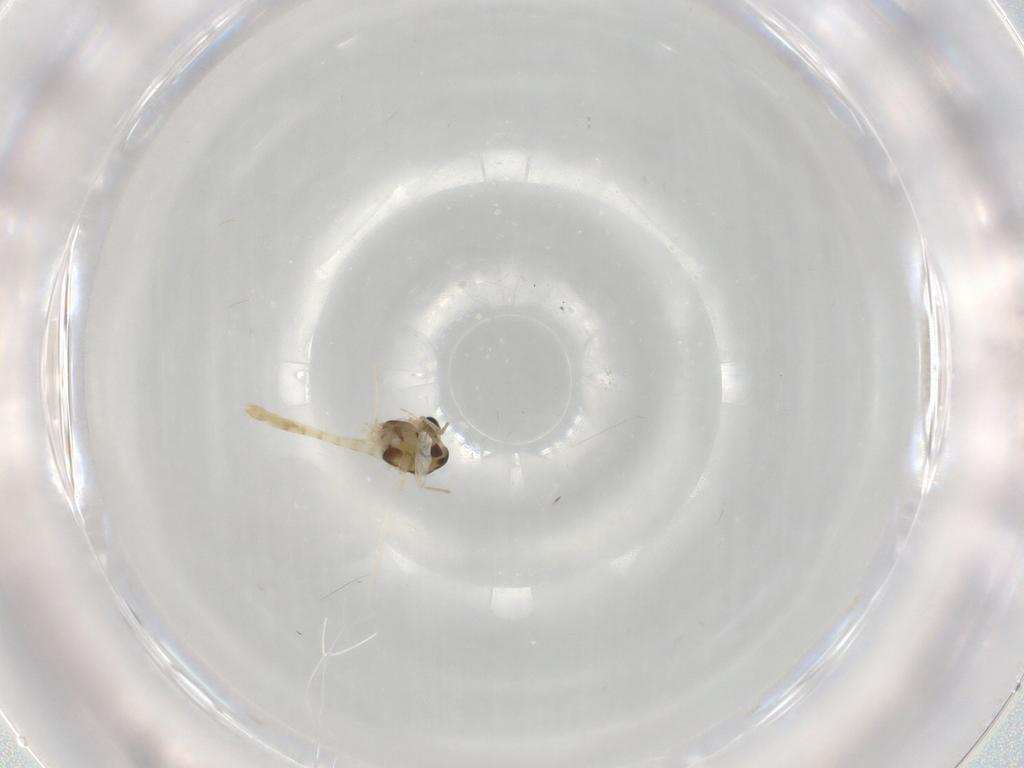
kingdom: Animalia
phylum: Arthropoda
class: Insecta
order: Diptera
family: Chironomidae
